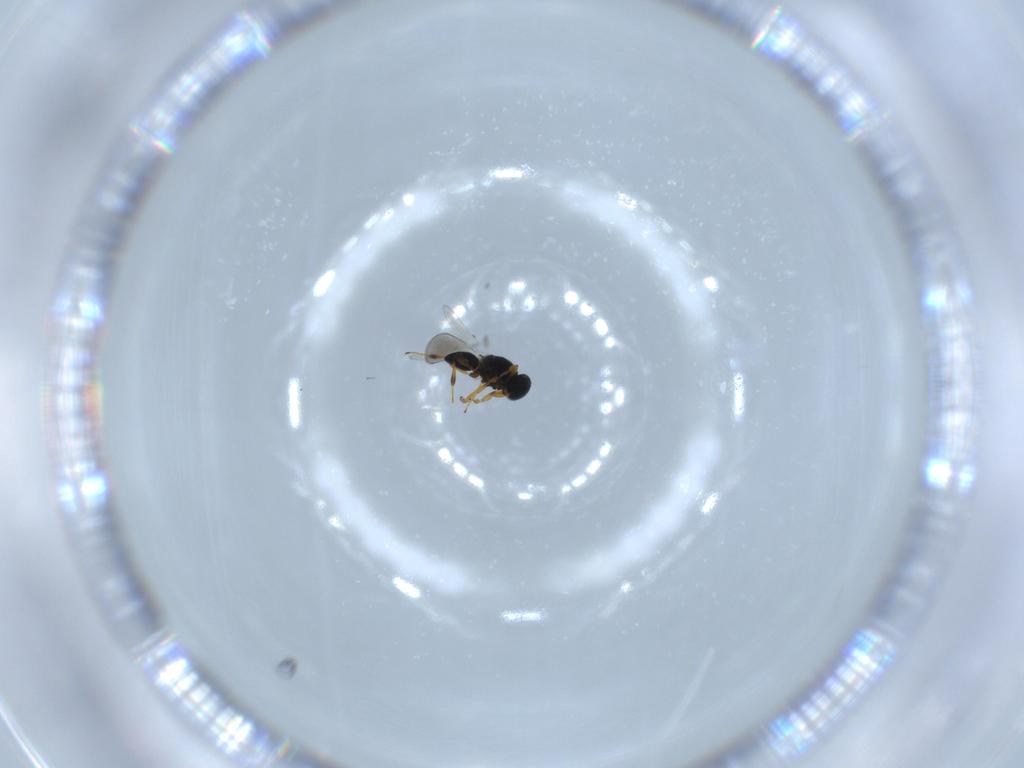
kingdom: Animalia
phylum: Arthropoda
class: Insecta
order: Hymenoptera
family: Platygastridae
